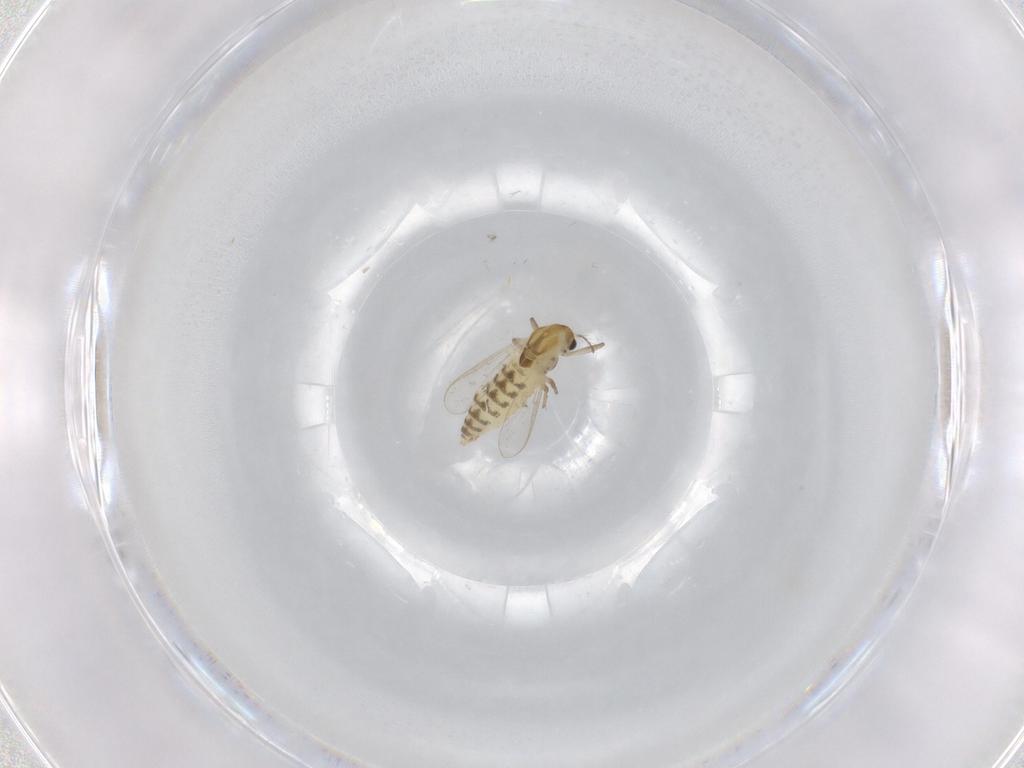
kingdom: Animalia
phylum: Arthropoda
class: Insecta
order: Diptera
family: Chironomidae
